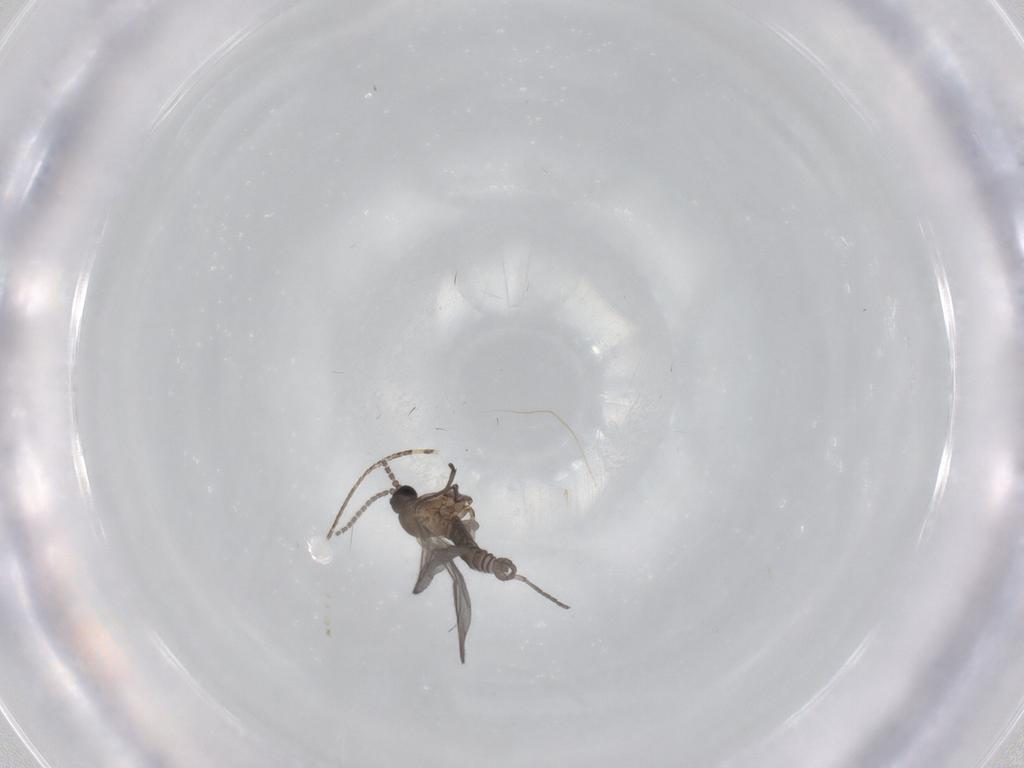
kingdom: Animalia
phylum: Arthropoda
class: Insecta
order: Diptera
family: Sciaridae
